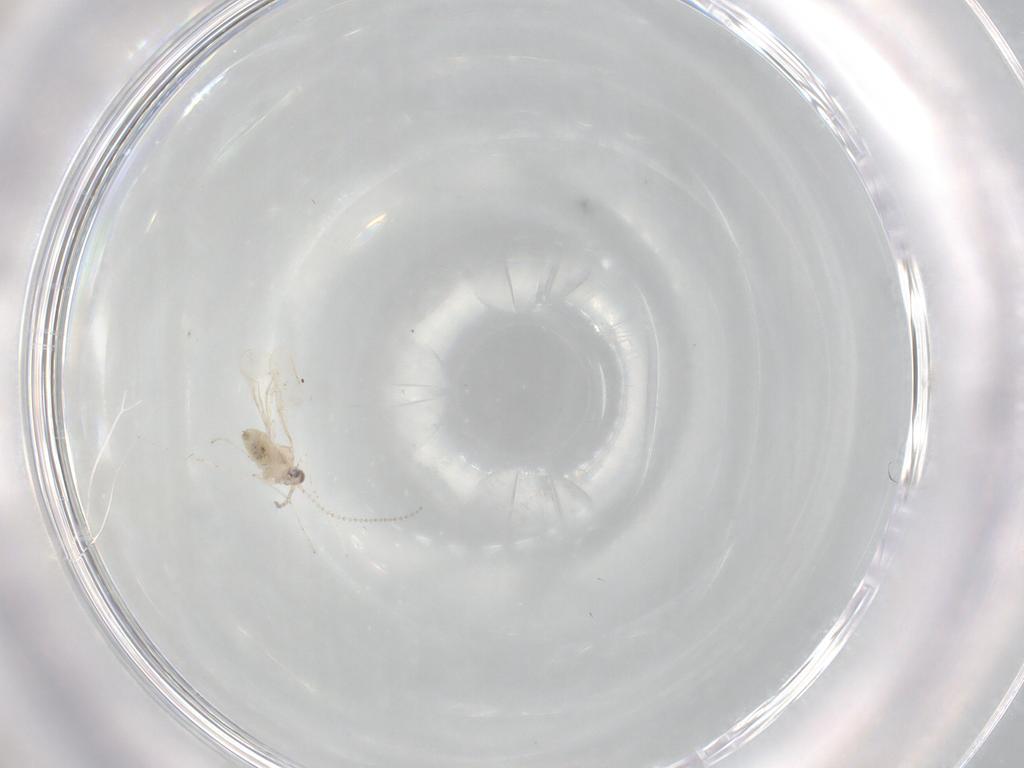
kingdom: Animalia
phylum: Arthropoda
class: Insecta
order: Diptera
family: Cecidomyiidae
